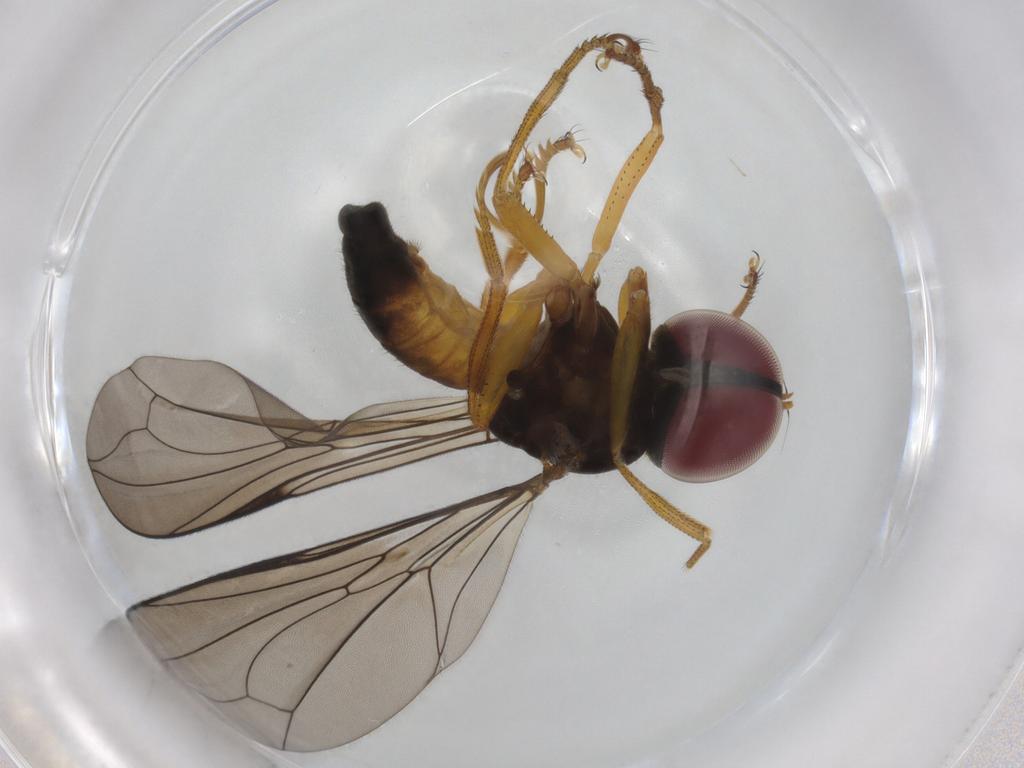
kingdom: Animalia
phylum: Arthropoda
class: Insecta
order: Diptera
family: Pipunculidae
